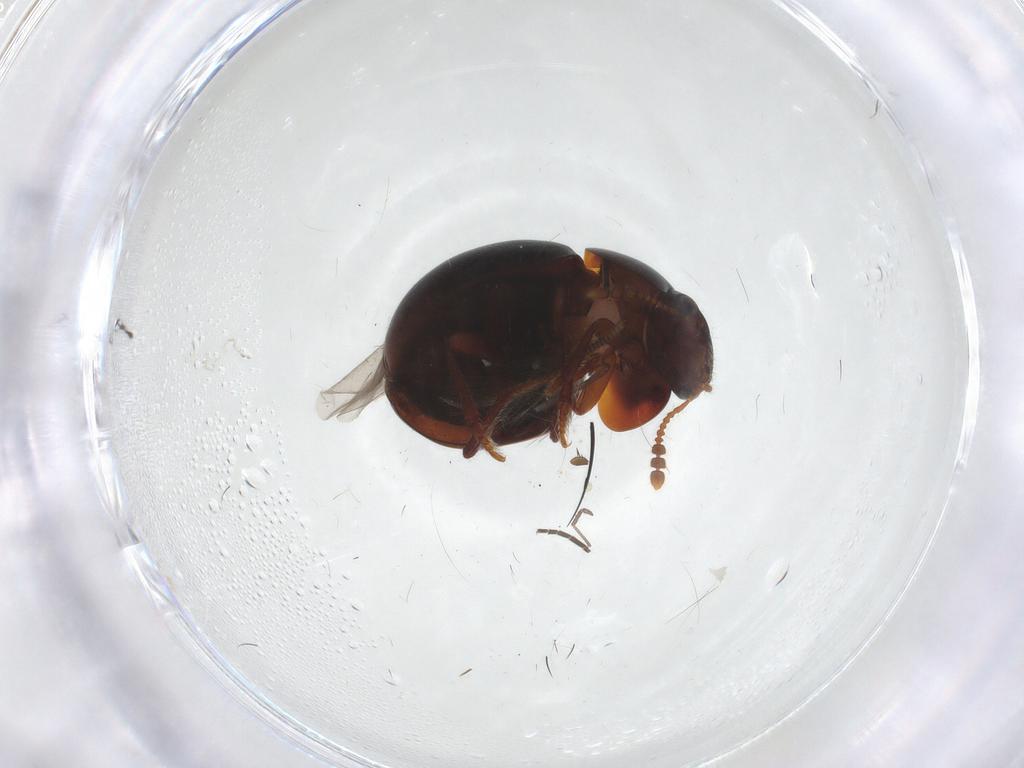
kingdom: Animalia
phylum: Arthropoda
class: Insecta
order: Coleoptera
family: Leiodidae
